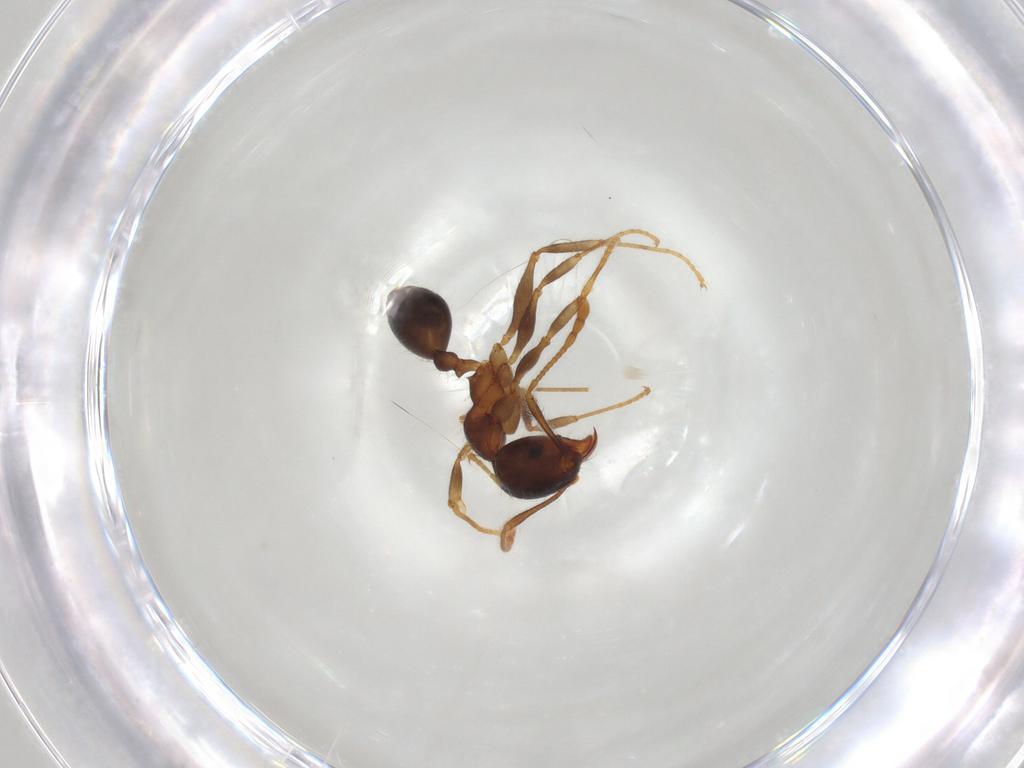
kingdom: Animalia
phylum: Arthropoda
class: Insecta
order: Hymenoptera
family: Formicidae
